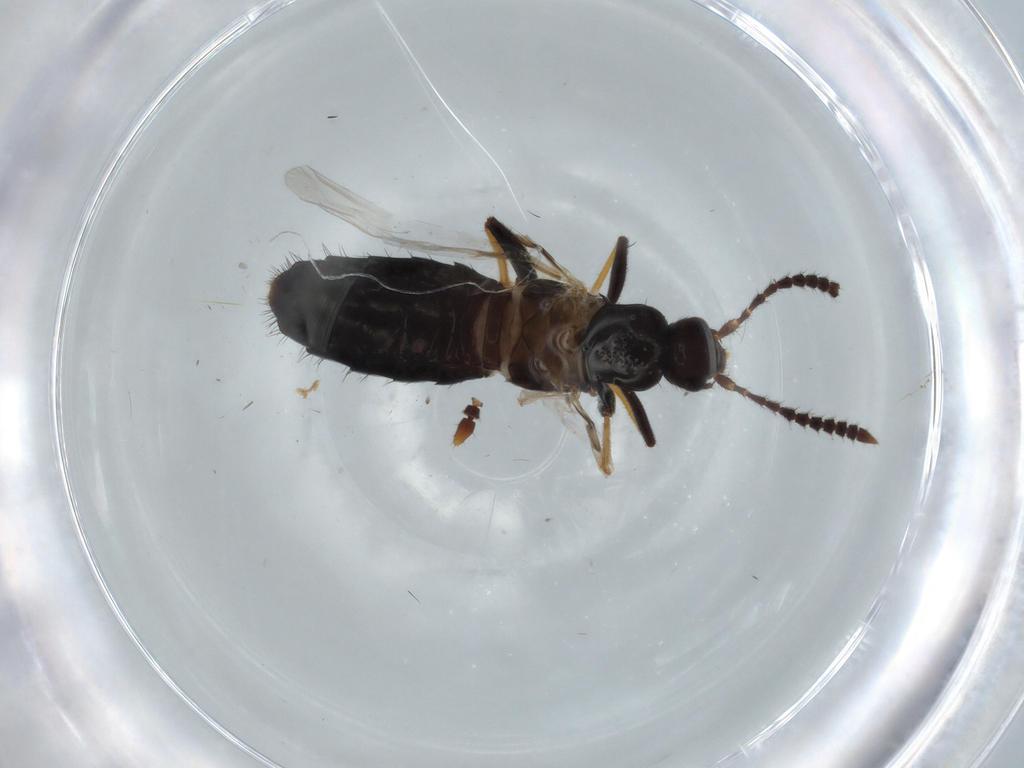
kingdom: Animalia
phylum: Arthropoda
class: Insecta
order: Coleoptera
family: Staphylinidae
